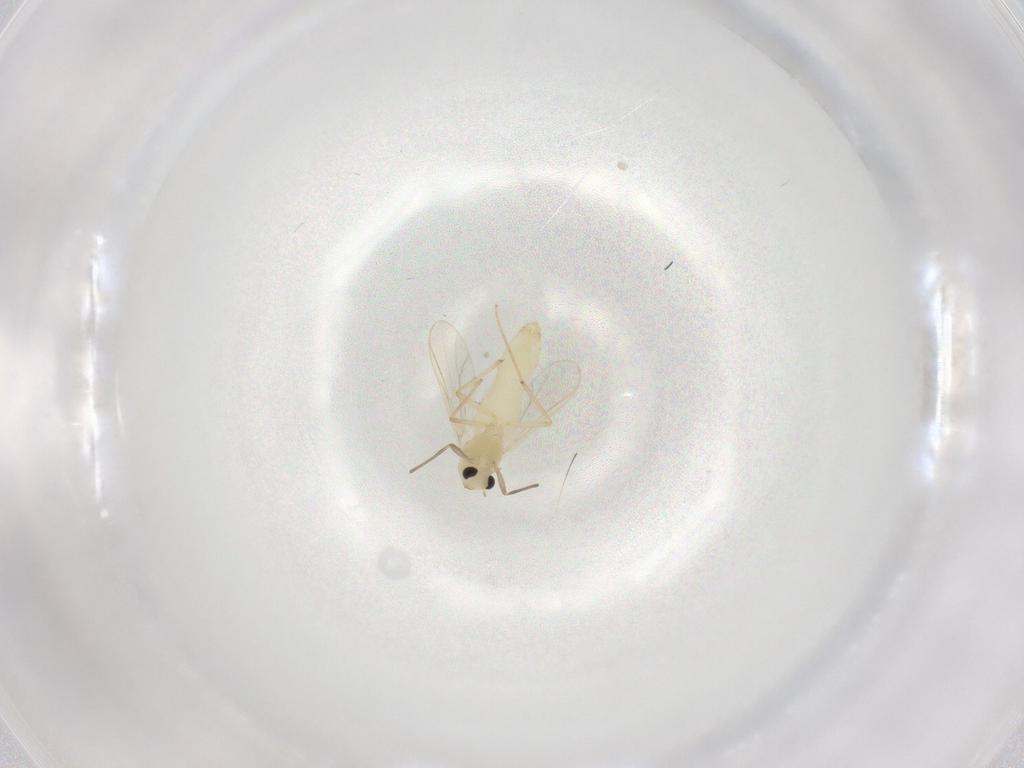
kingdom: Animalia
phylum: Arthropoda
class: Insecta
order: Diptera
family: Chironomidae
